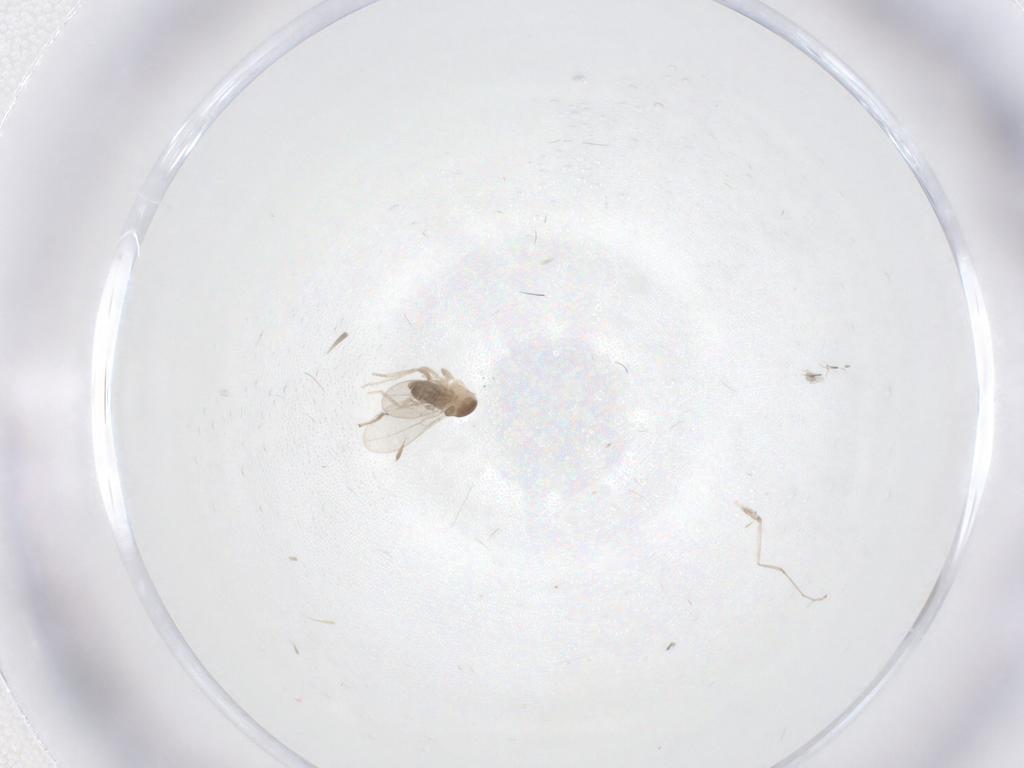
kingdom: Animalia
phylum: Arthropoda
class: Insecta
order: Diptera
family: Cecidomyiidae
